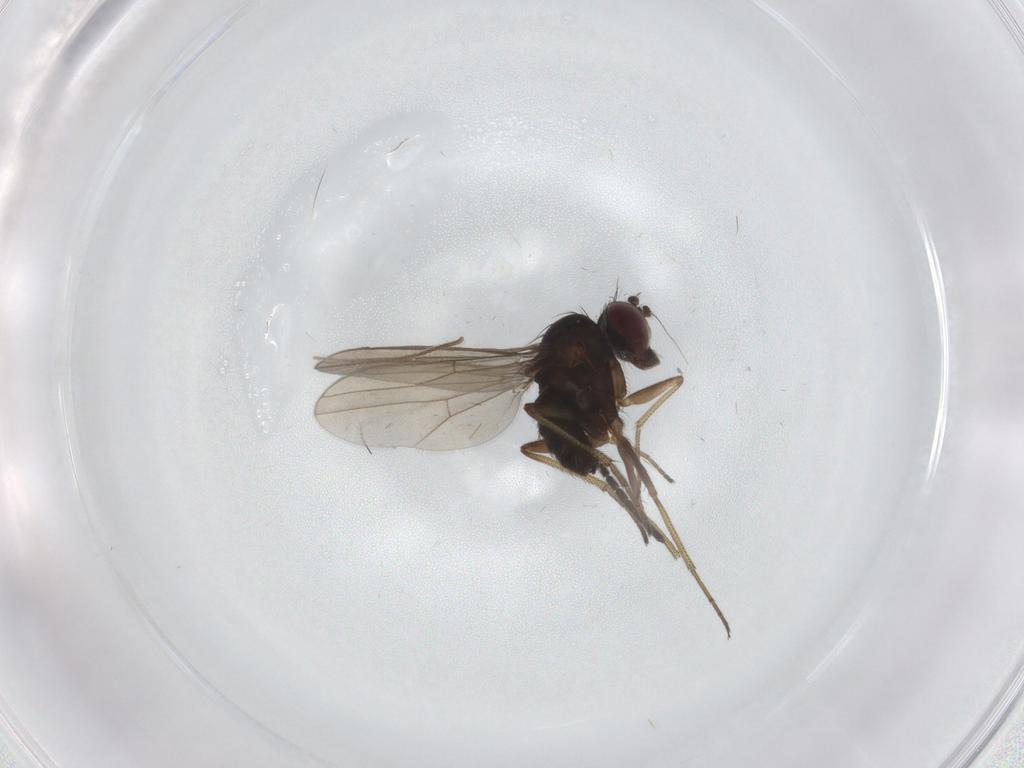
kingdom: Animalia
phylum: Arthropoda
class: Insecta
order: Diptera
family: Dolichopodidae
